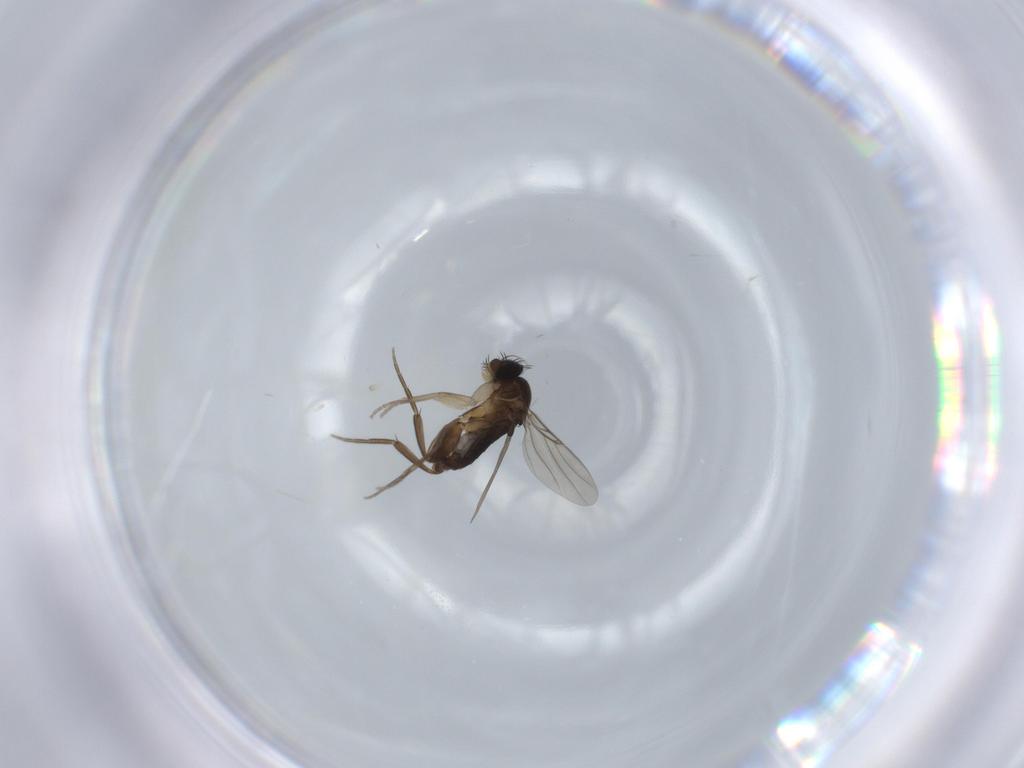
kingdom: Animalia
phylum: Arthropoda
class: Insecta
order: Diptera
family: Phoridae
